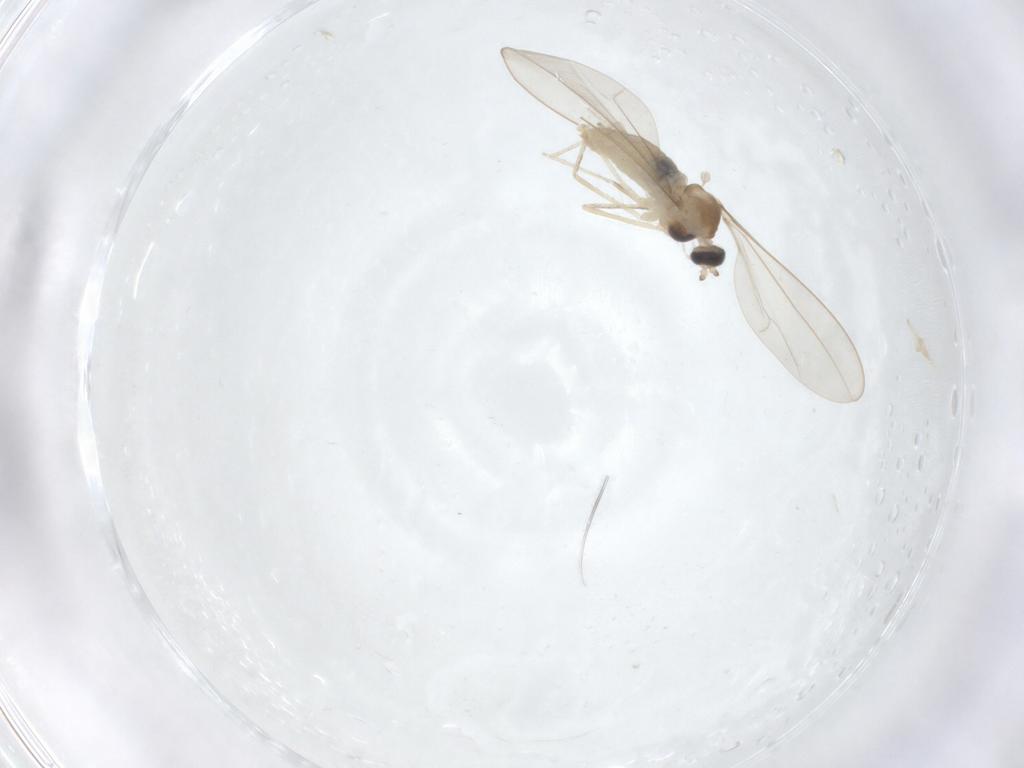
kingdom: Animalia
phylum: Arthropoda
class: Insecta
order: Diptera
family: Cecidomyiidae
